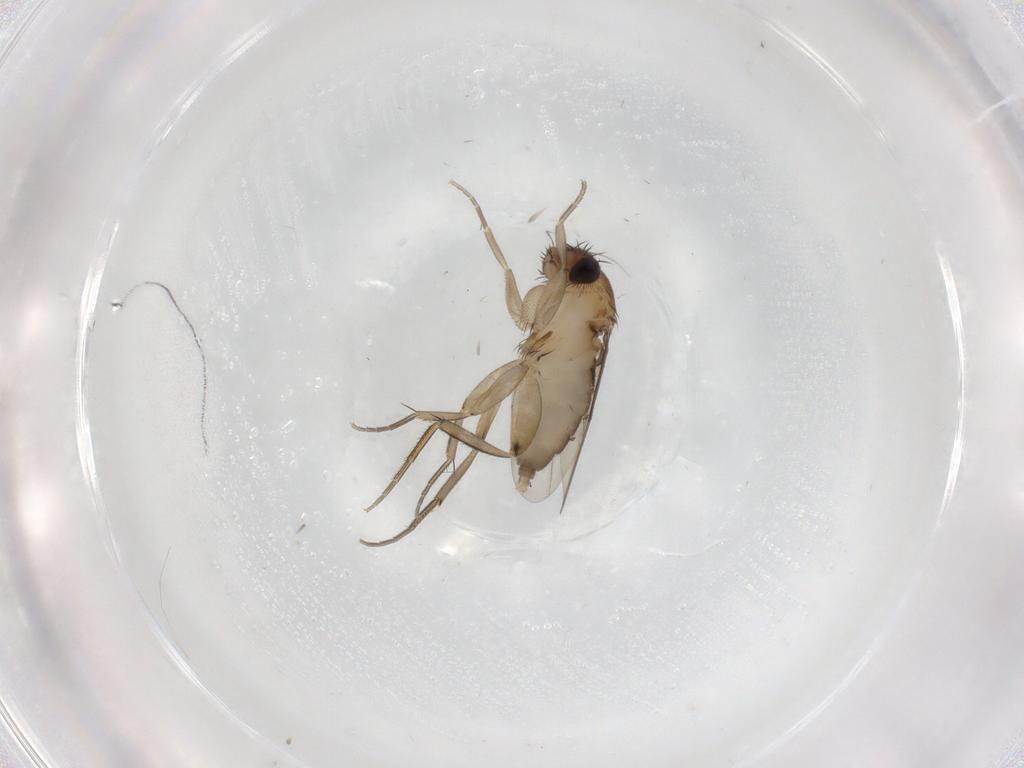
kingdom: Animalia
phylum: Arthropoda
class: Insecta
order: Diptera
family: Phoridae
